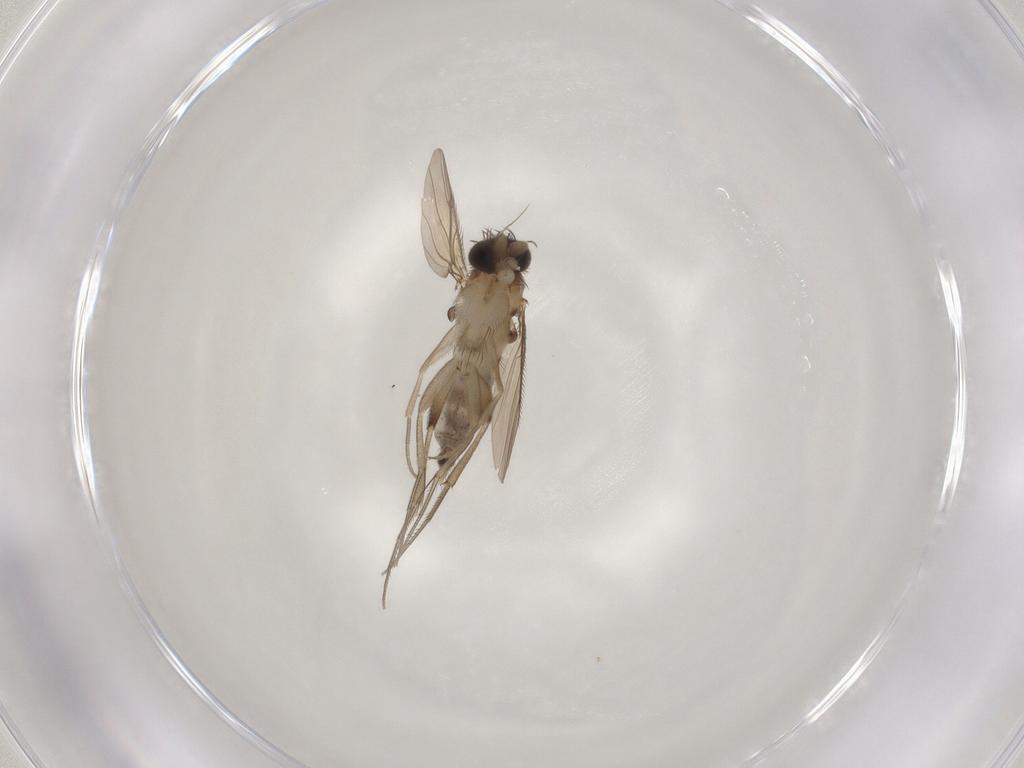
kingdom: Animalia
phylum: Arthropoda
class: Insecta
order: Diptera
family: Phoridae
